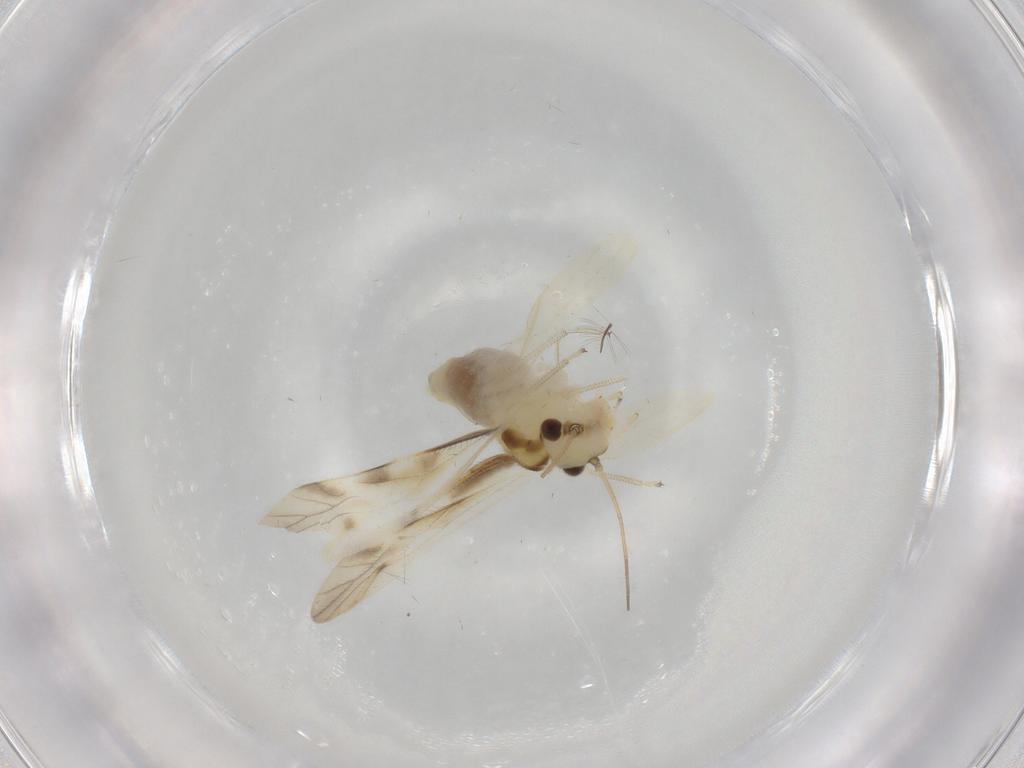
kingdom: Animalia
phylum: Arthropoda
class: Insecta
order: Psocodea
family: Caeciliusidae
